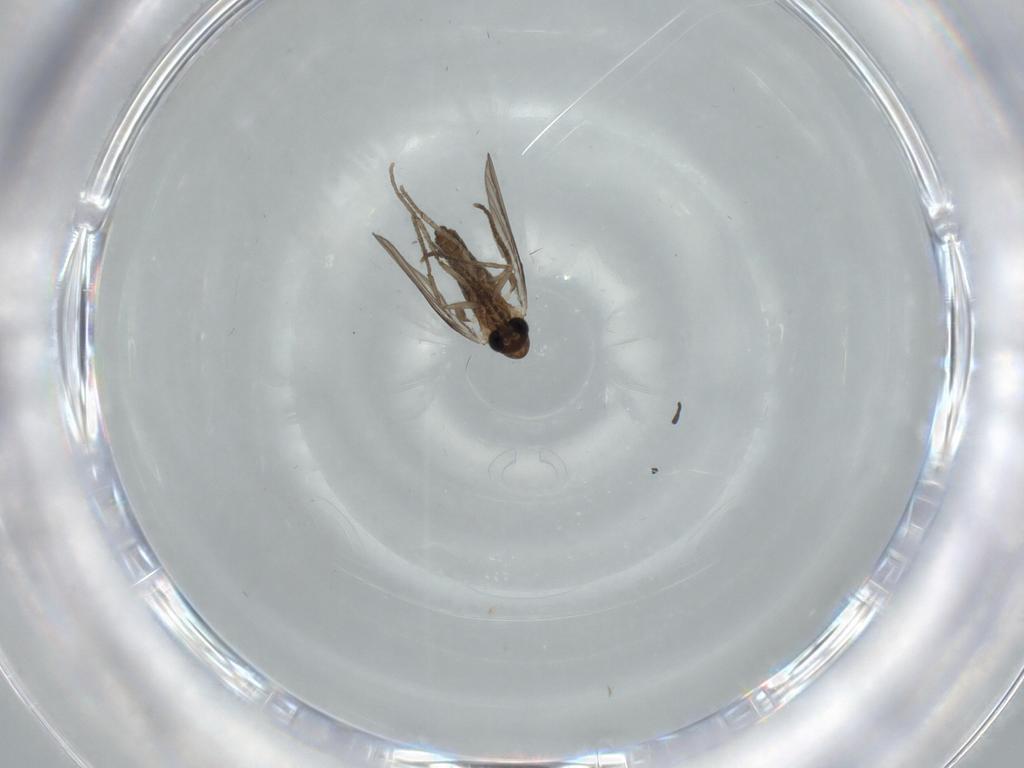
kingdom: Animalia
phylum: Arthropoda
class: Insecta
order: Diptera
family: Psychodidae
